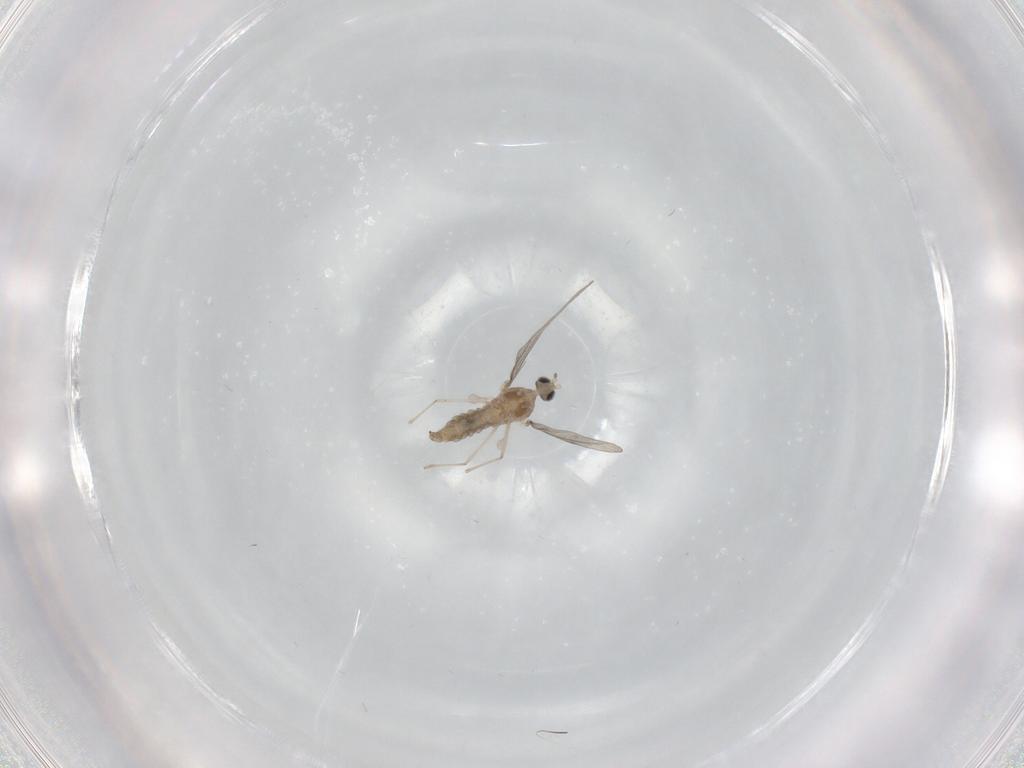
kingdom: Animalia
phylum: Arthropoda
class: Insecta
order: Diptera
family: Cecidomyiidae
